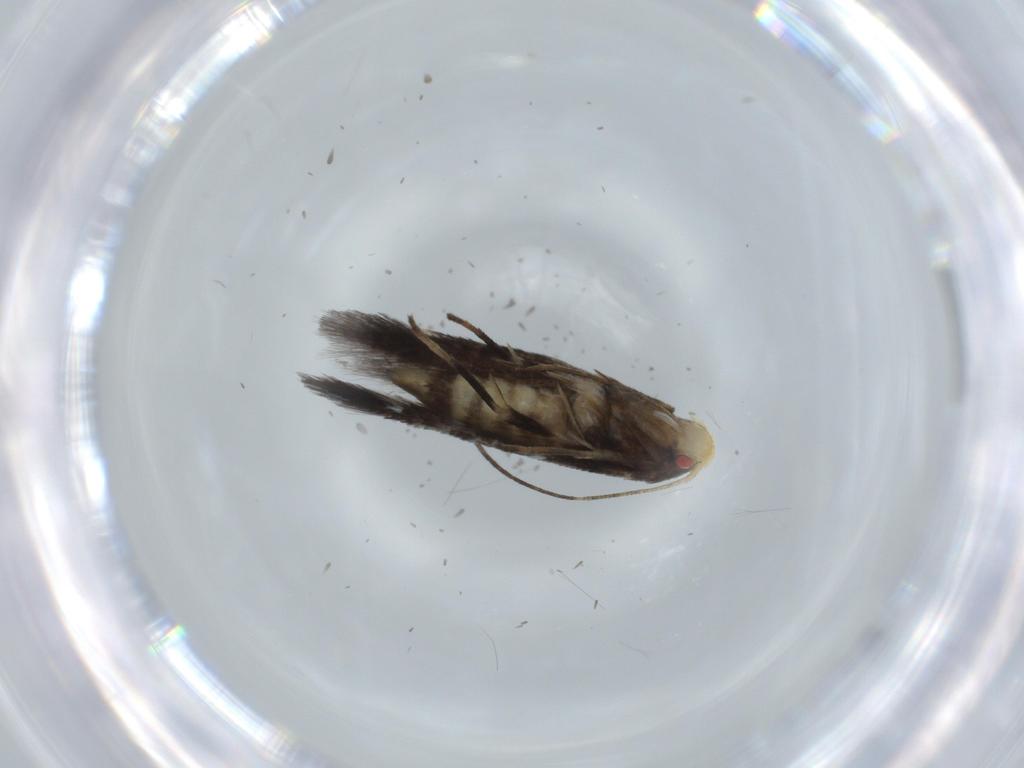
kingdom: Animalia
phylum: Arthropoda
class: Insecta
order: Lepidoptera
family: Cosmopterigidae
